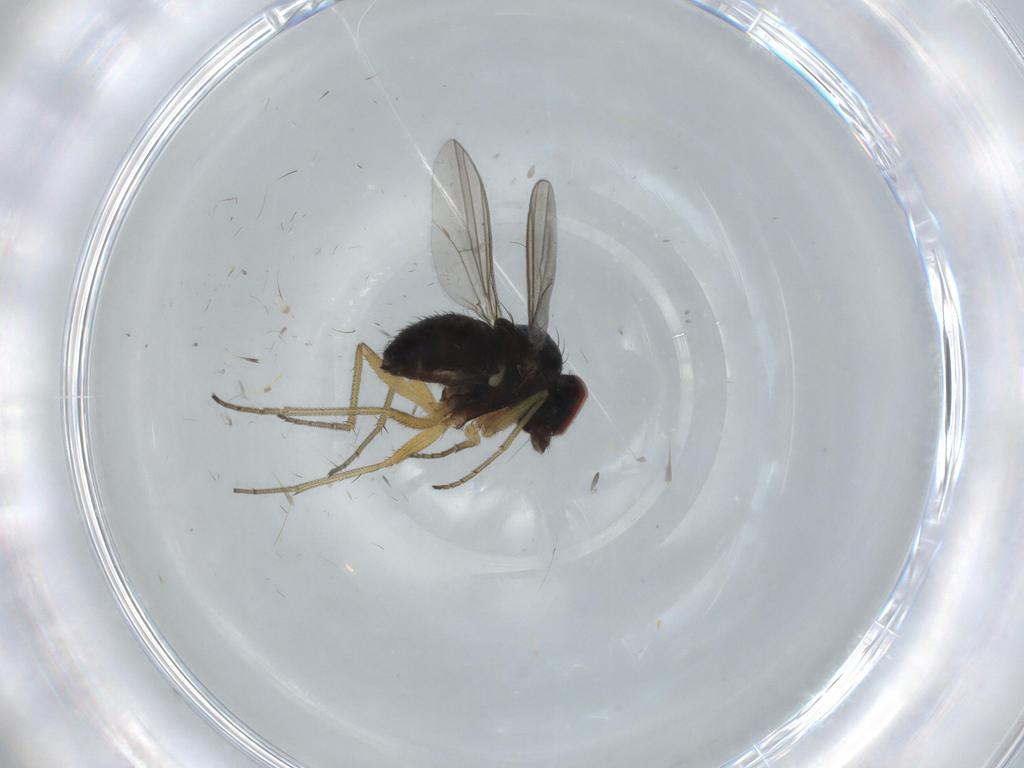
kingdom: Animalia
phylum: Arthropoda
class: Insecta
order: Diptera
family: Dolichopodidae
